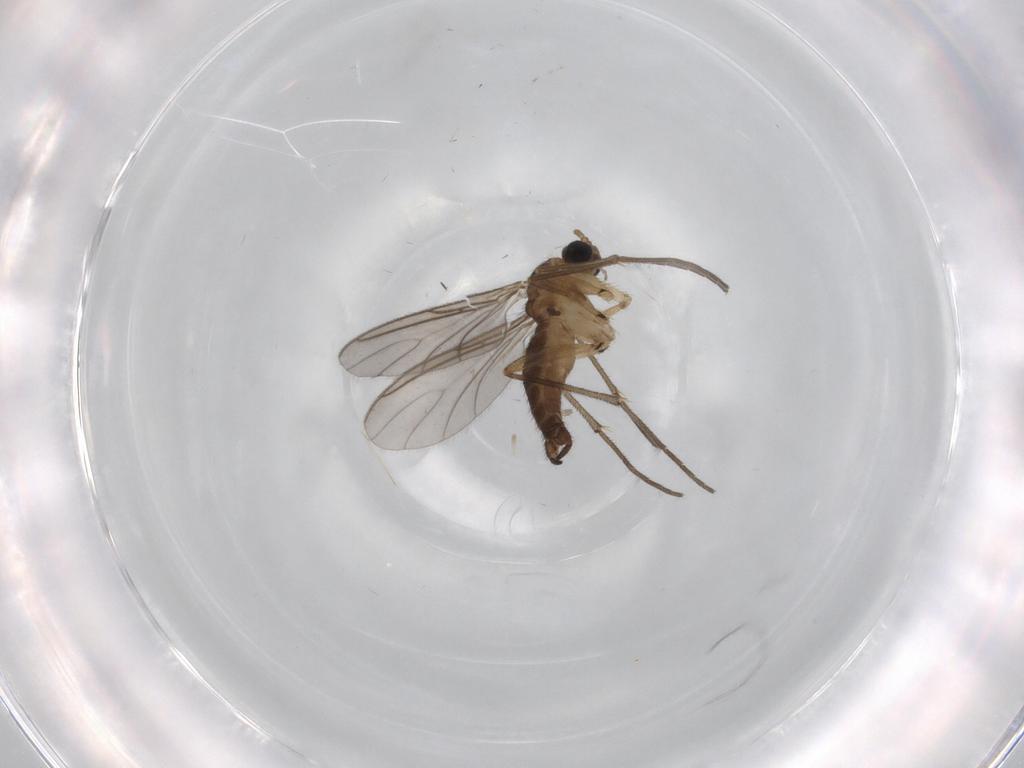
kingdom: Animalia
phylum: Arthropoda
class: Insecta
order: Diptera
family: Sciaridae
